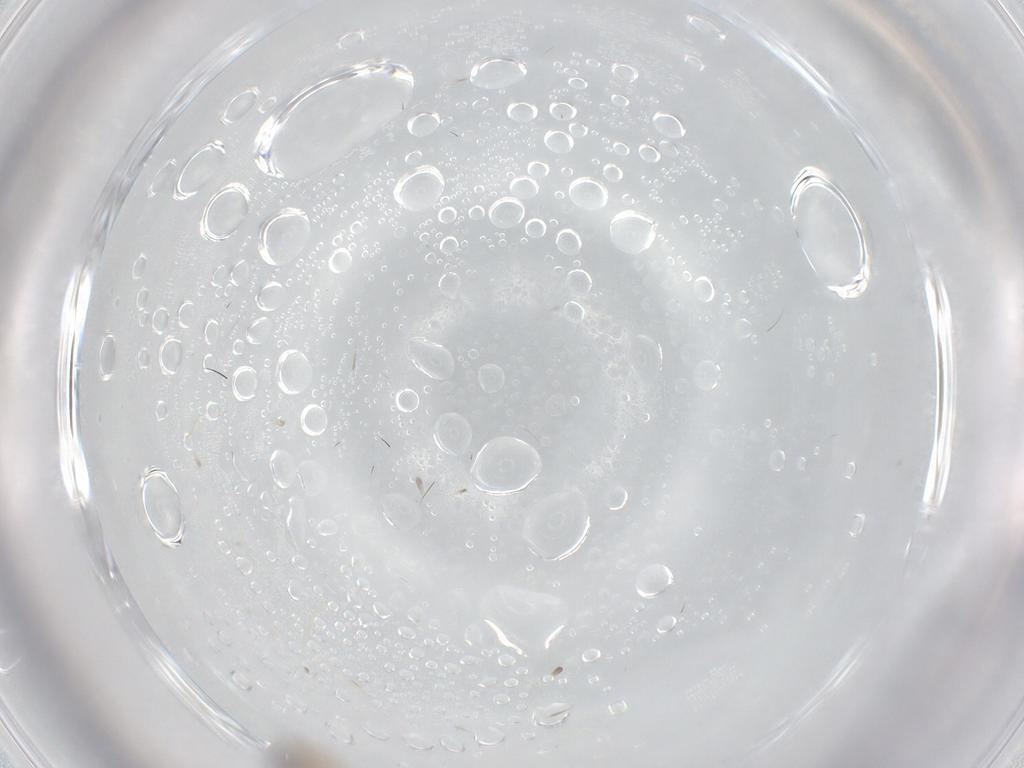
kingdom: Animalia
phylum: Arthropoda
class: Insecta
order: Diptera
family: Cecidomyiidae
